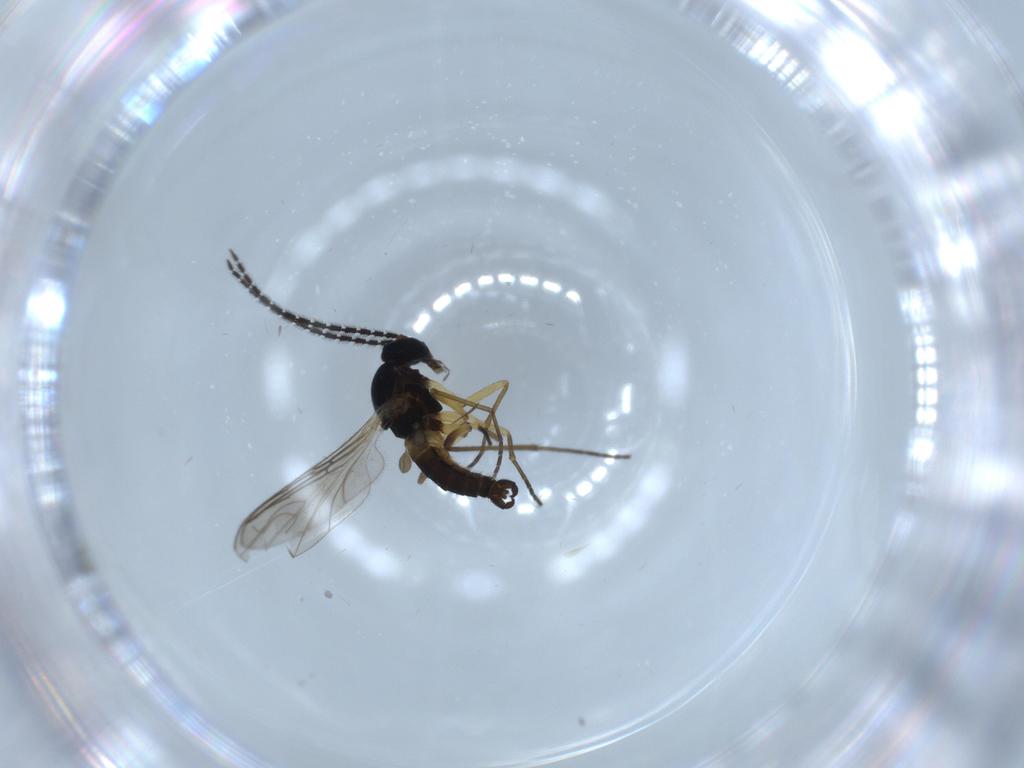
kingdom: Animalia
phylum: Arthropoda
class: Insecta
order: Diptera
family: Sciaridae
